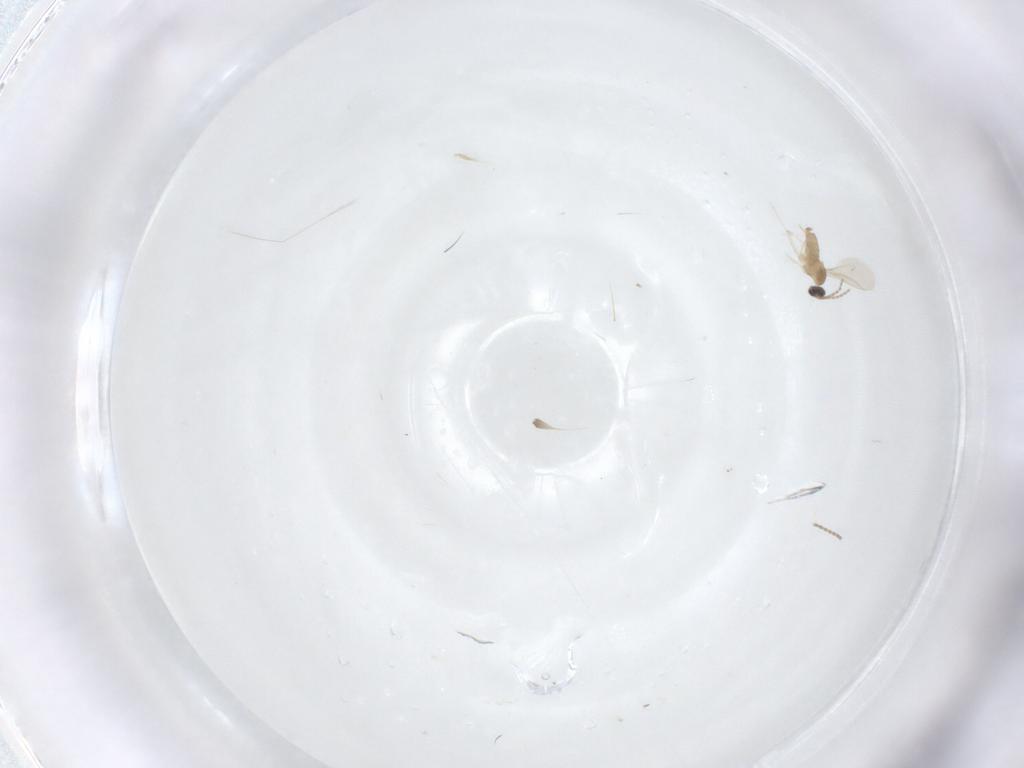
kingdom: Animalia
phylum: Arthropoda
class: Insecta
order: Diptera
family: Cecidomyiidae
